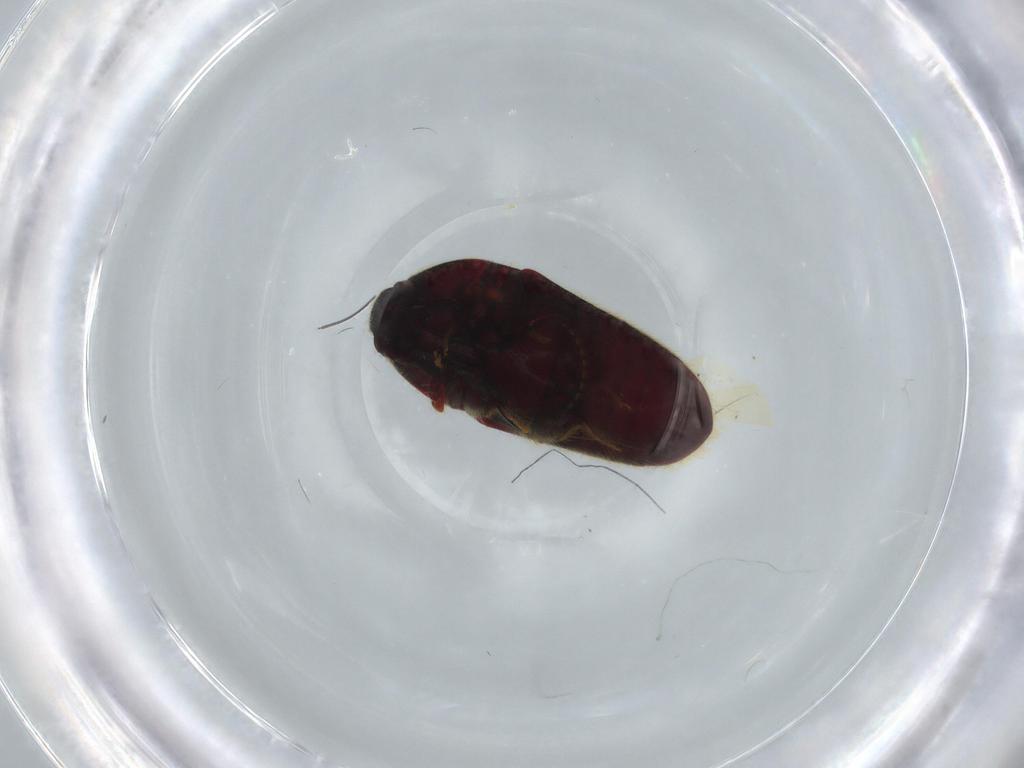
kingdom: Animalia
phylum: Arthropoda
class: Insecta
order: Coleoptera
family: Throscidae
